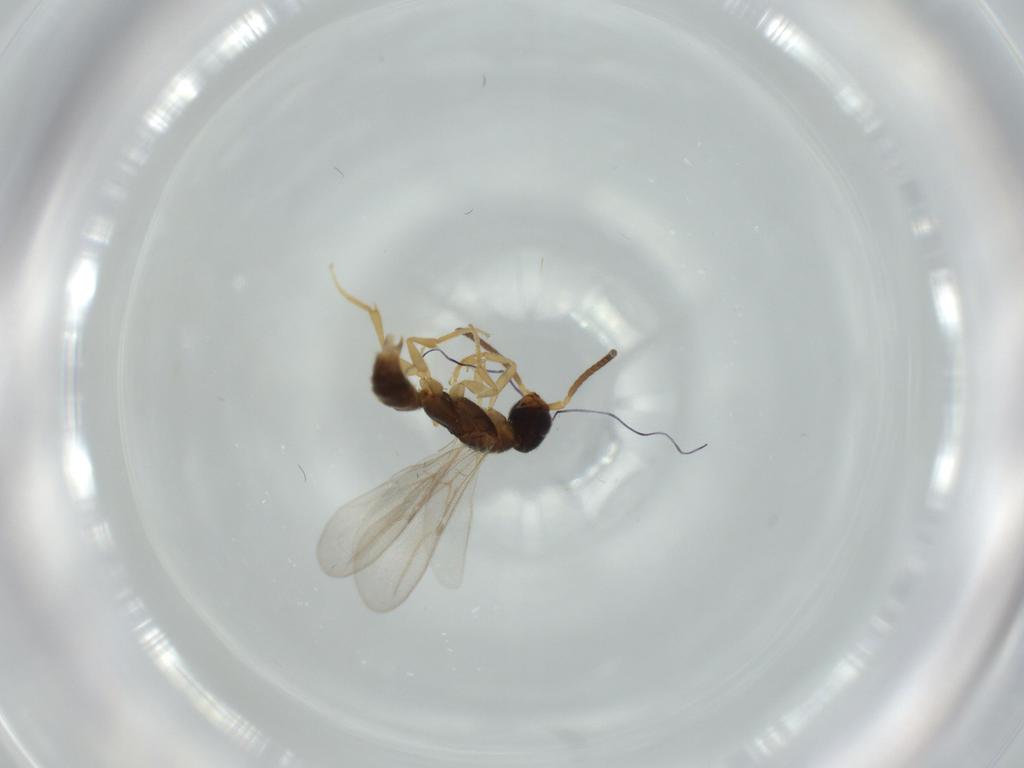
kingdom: Animalia
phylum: Arthropoda
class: Insecta
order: Hymenoptera
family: Bethylidae
